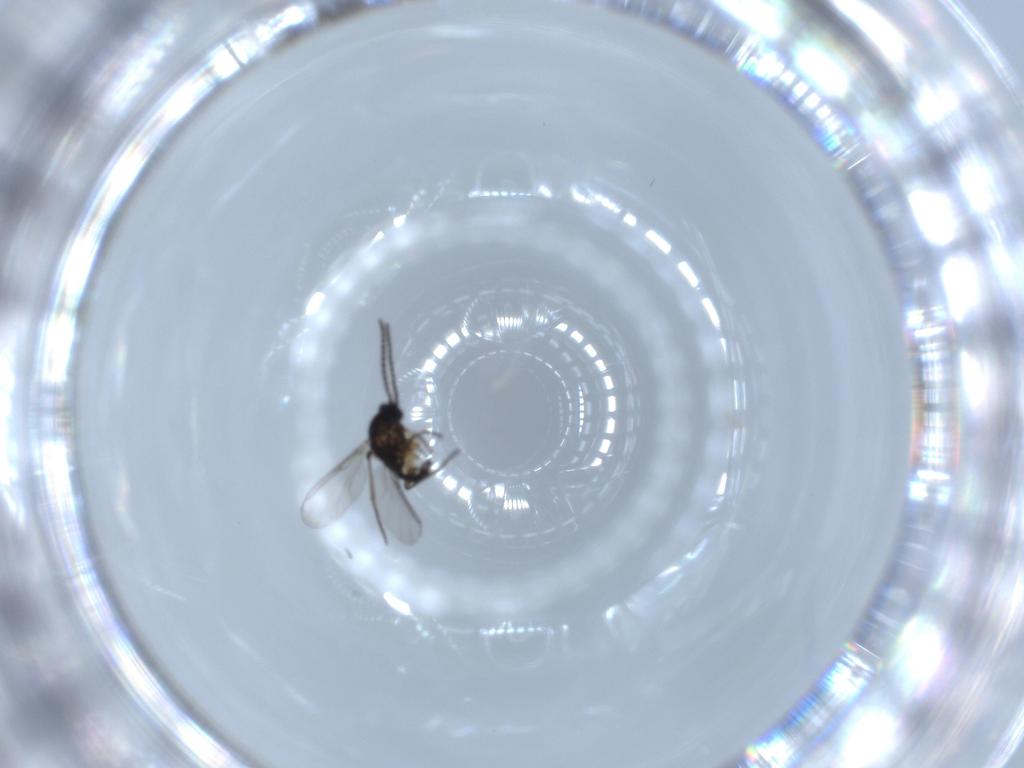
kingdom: Animalia
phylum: Arthropoda
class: Insecta
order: Diptera
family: Sciaridae
